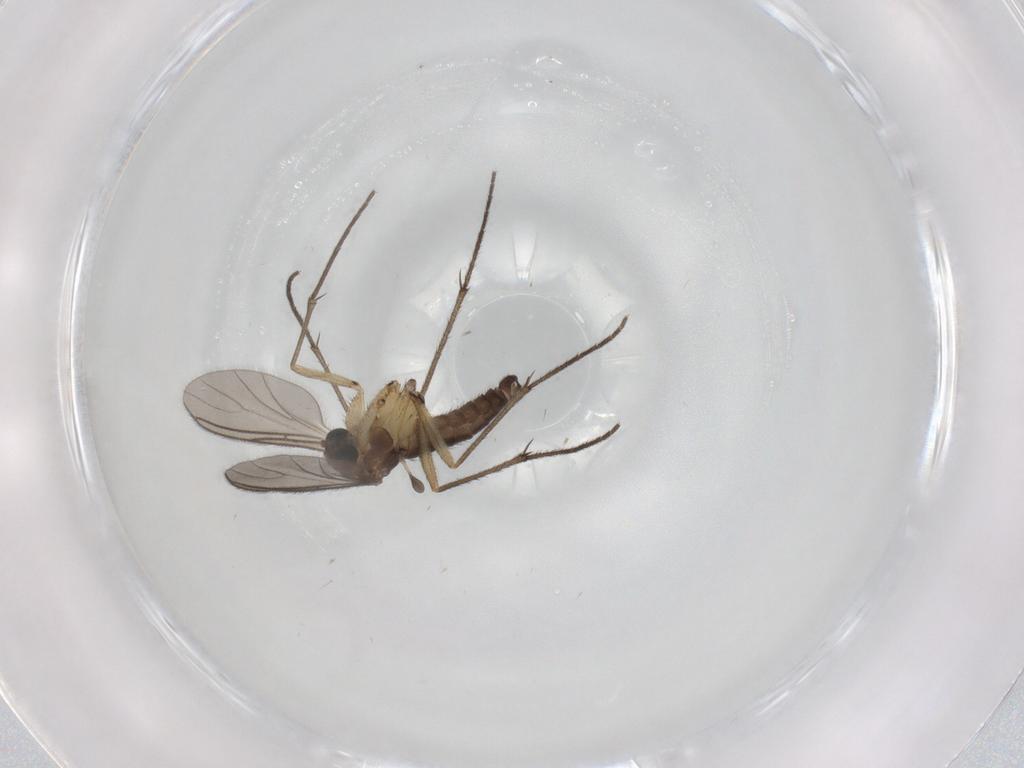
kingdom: Animalia
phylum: Arthropoda
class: Insecta
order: Diptera
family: Sciaridae
